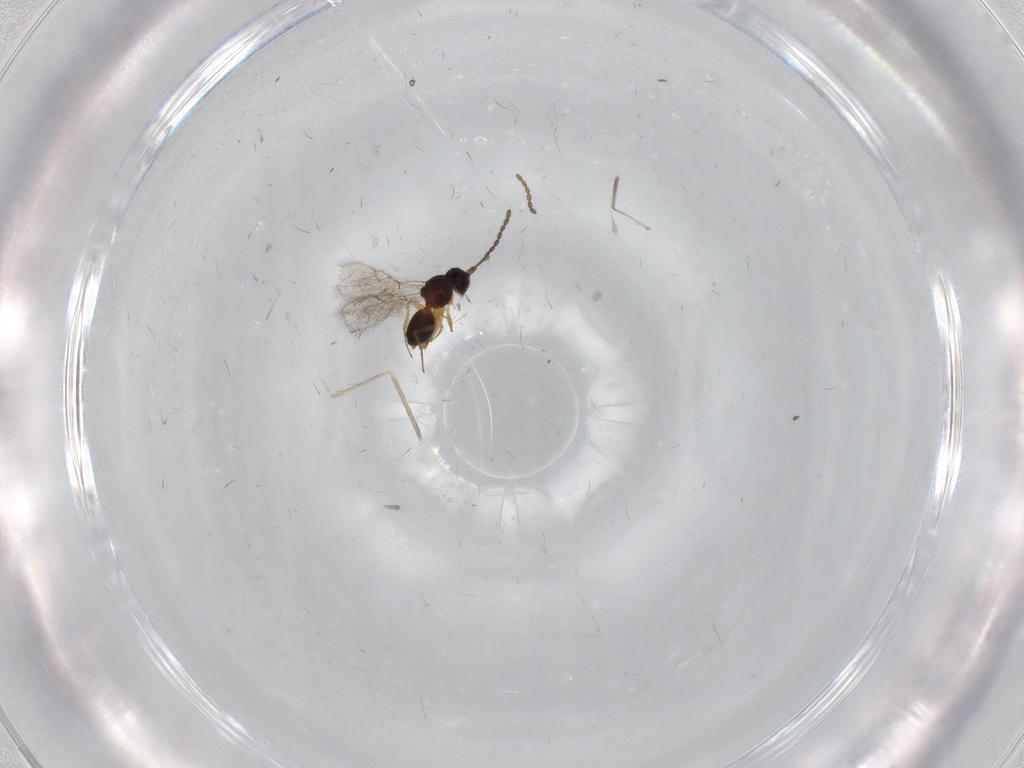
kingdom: Animalia
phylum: Arthropoda
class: Insecta
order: Hymenoptera
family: Figitidae
